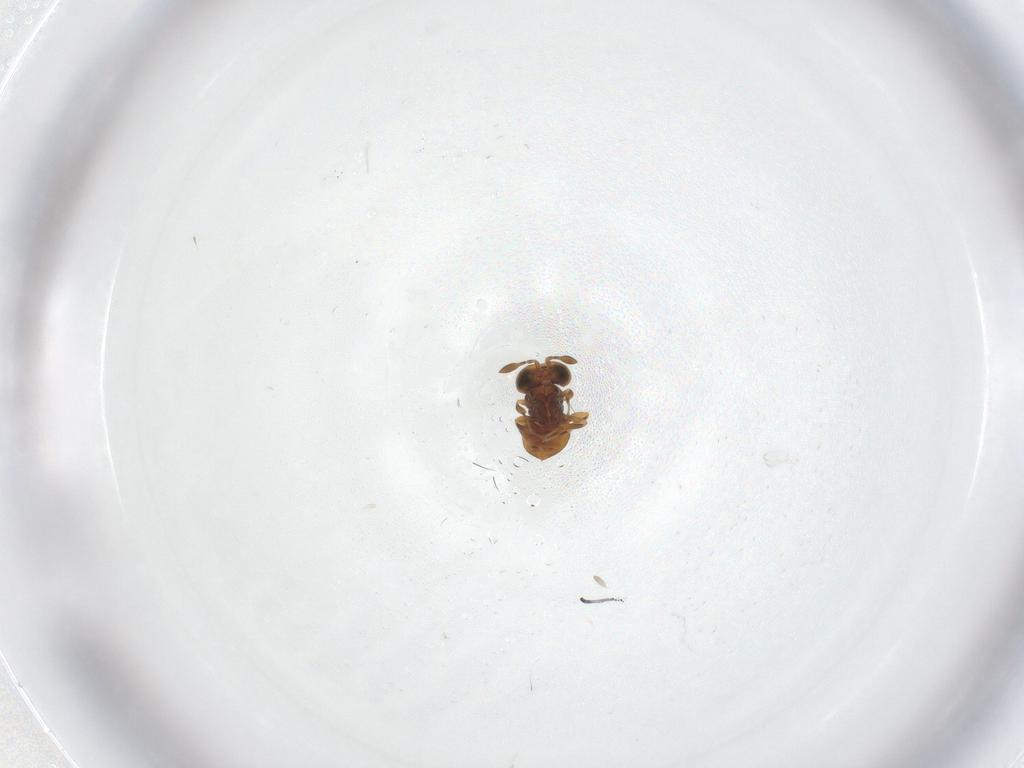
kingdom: Animalia
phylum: Arthropoda
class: Insecta
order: Hymenoptera
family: Scelionidae
